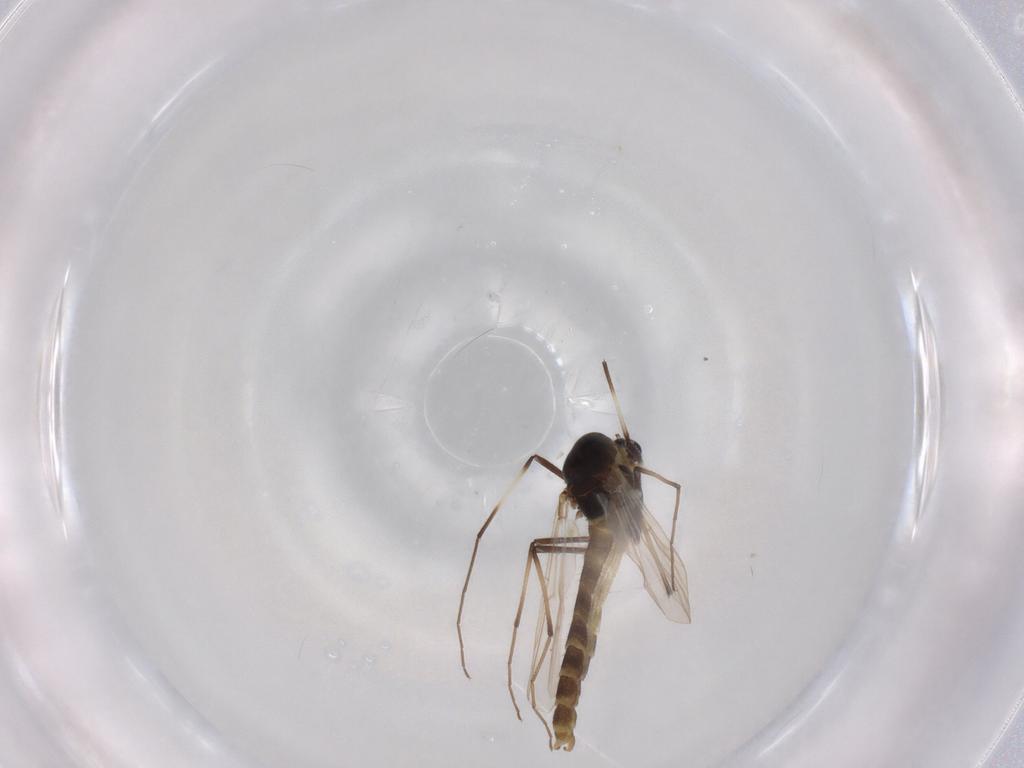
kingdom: Animalia
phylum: Arthropoda
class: Insecta
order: Diptera
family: Chironomidae
